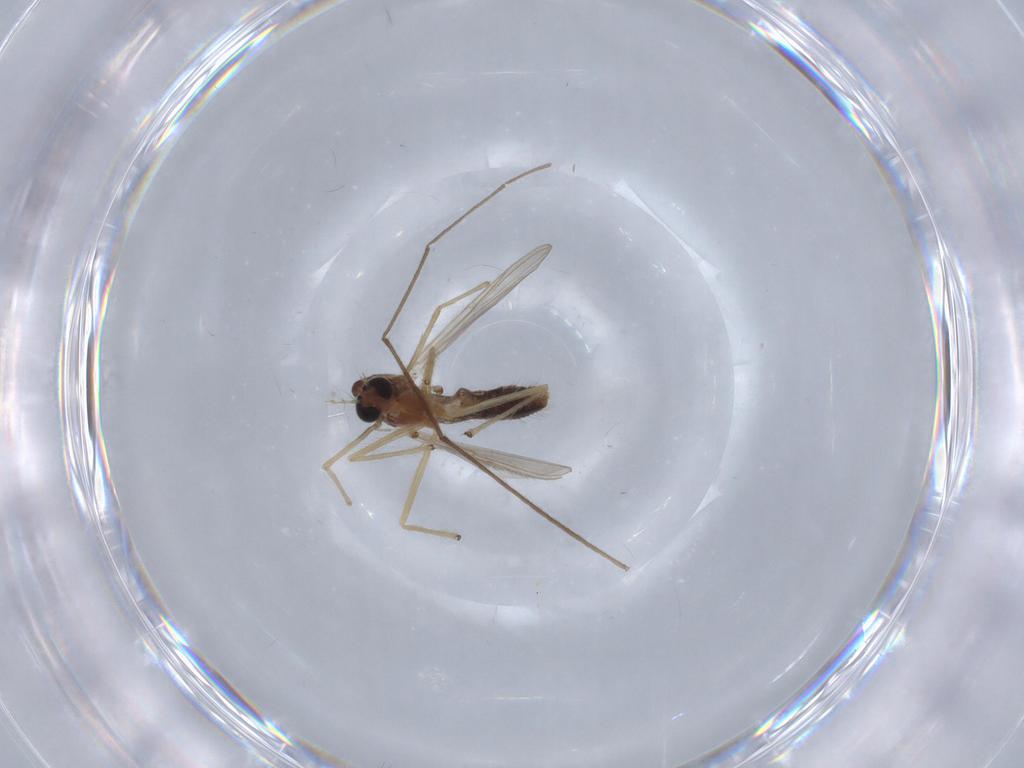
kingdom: Animalia
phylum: Arthropoda
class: Insecta
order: Diptera
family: Chironomidae
